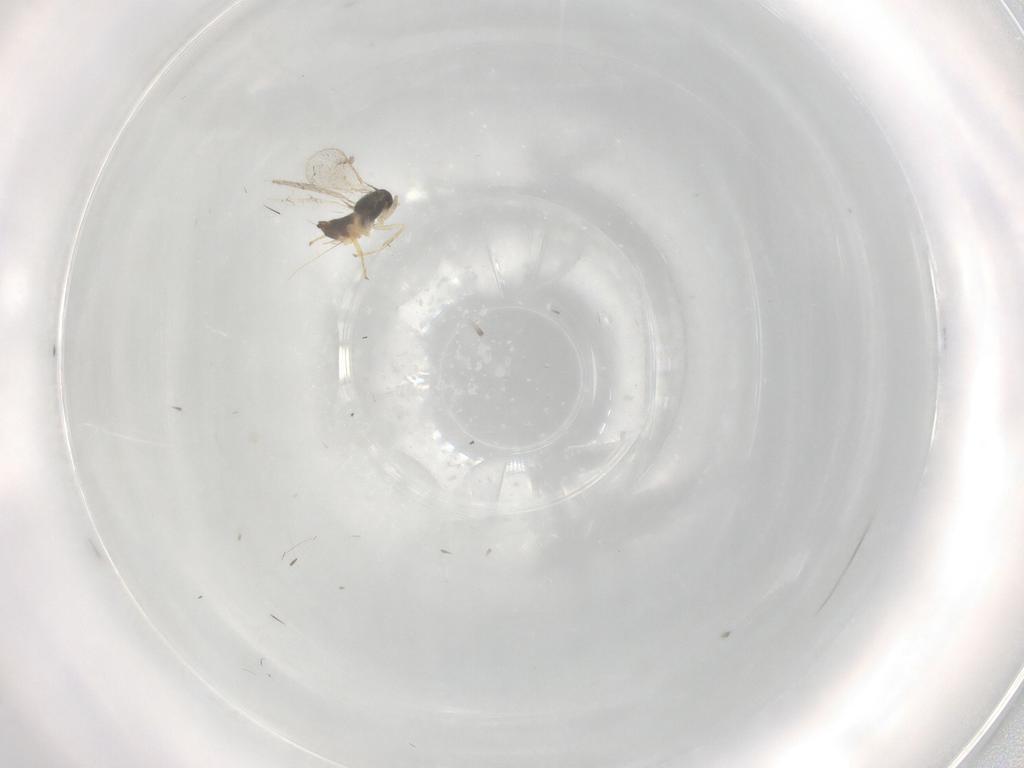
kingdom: Animalia
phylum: Arthropoda
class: Insecta
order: Hymenoptera
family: Eulophidae
